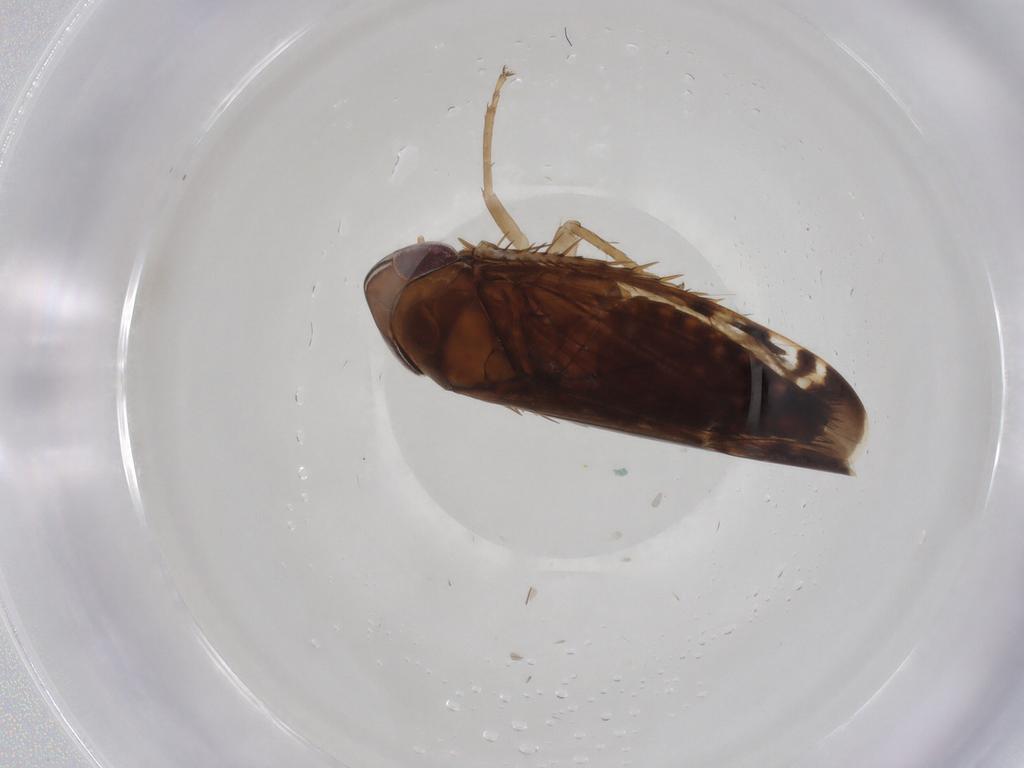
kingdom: Animalia
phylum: Arthropoda
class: Insecta
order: Hemiptera
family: Cicadellidae
